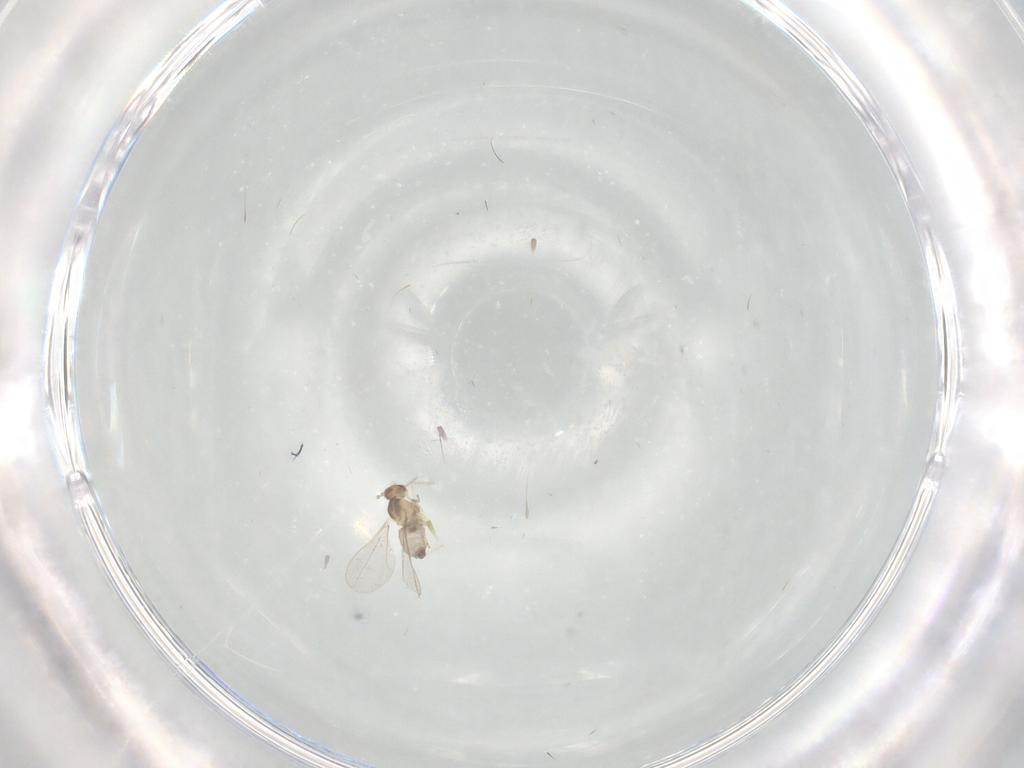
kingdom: Animalia
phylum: Arthropoda
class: Insecta
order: Diptera
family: Cecidomyiidae
